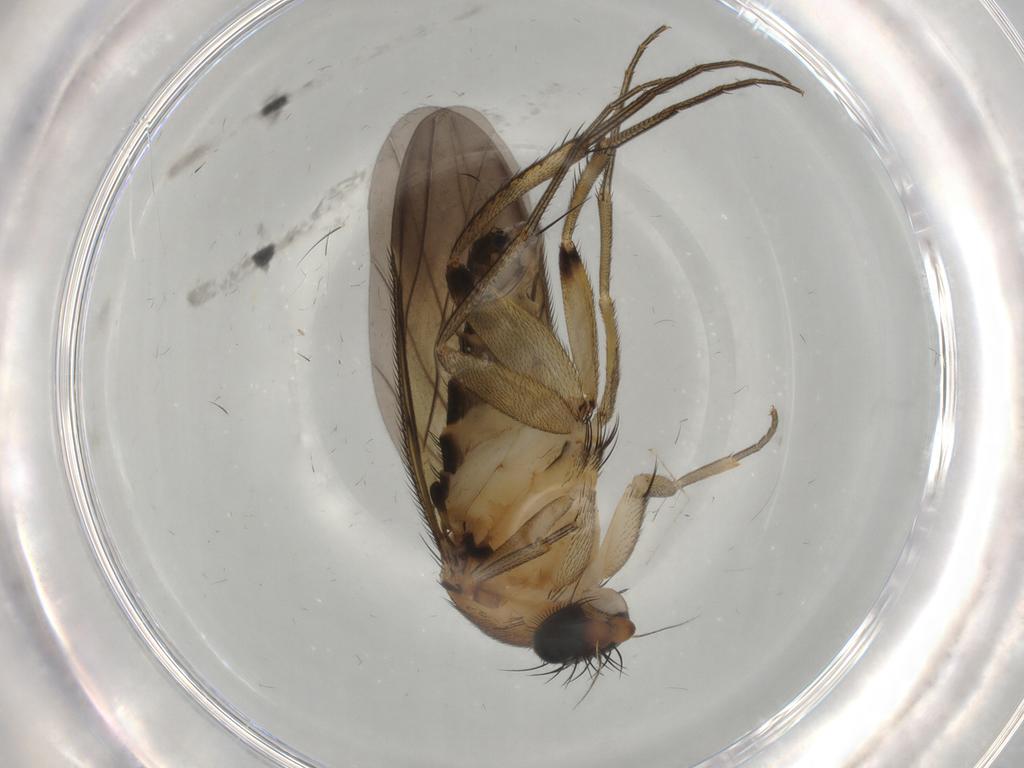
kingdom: Animalia
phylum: Arthropoda
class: Insecta
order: Diptera
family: Phoridae
